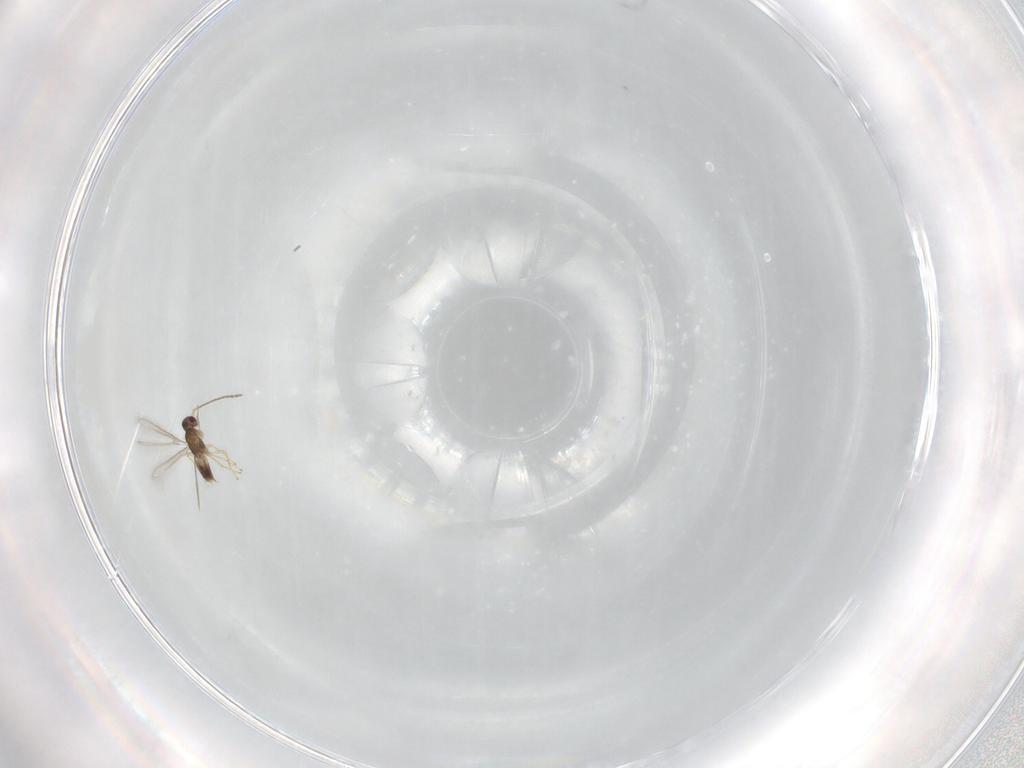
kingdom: Animalia
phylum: Arthropoda
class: Insecta
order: Hymenoptera
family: Mymaridae
